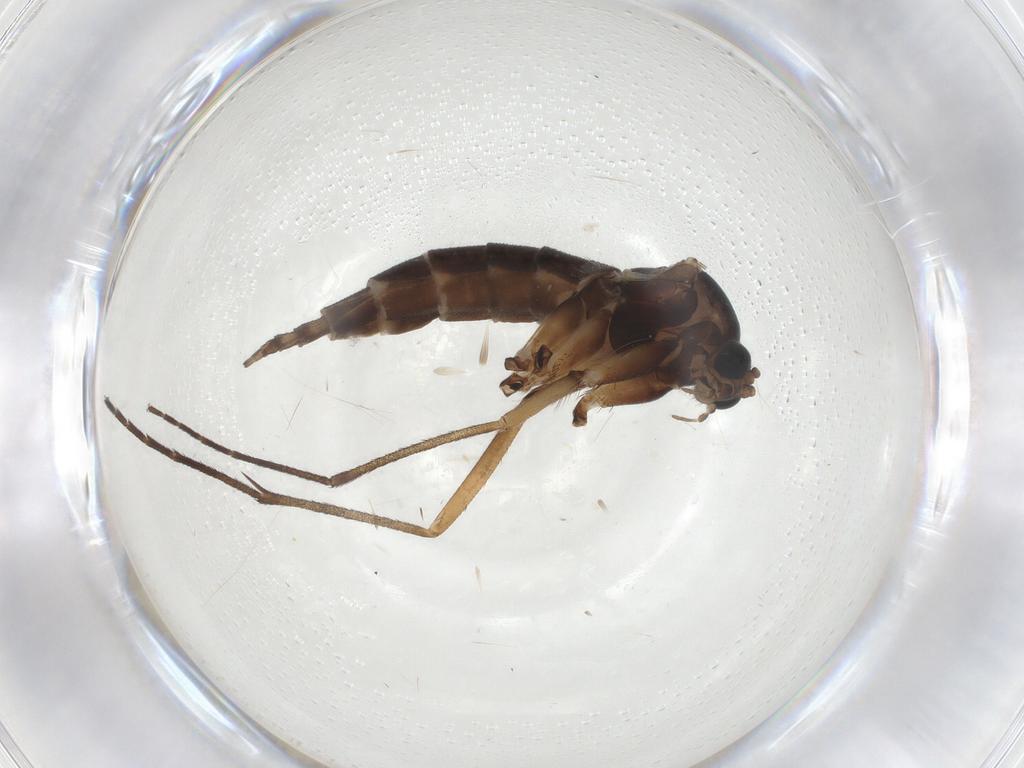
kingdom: Animalia
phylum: Arthropoda
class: Insecta
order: Diptera
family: Sciaridae
